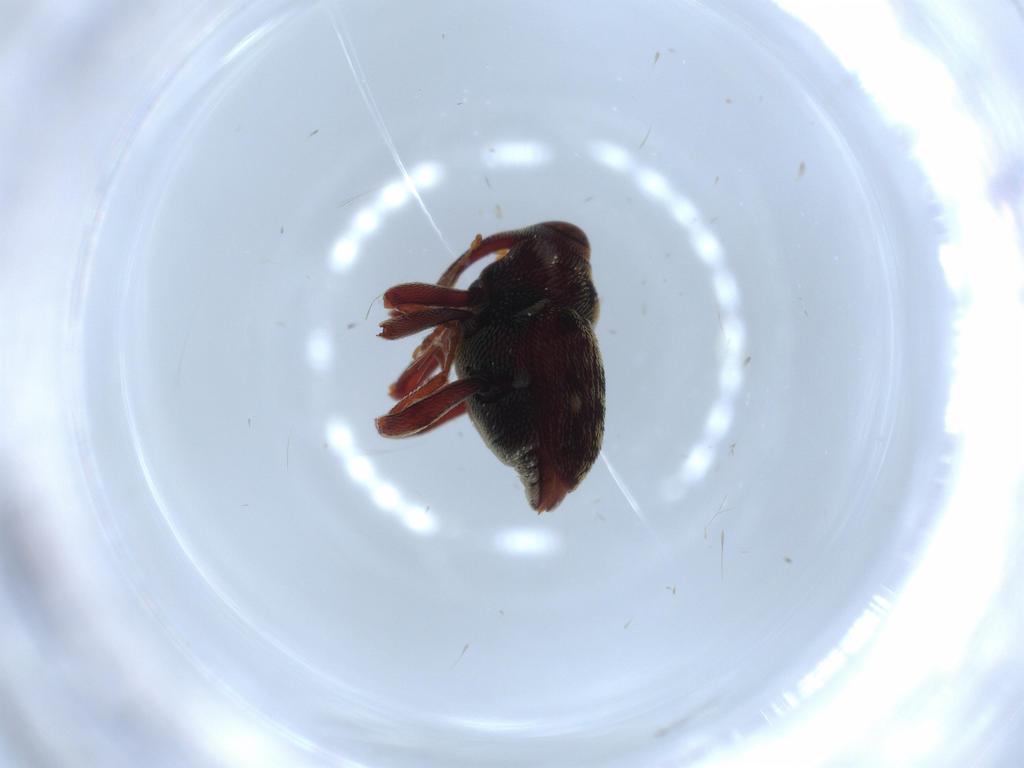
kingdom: Animalia
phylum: Arthropoda
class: Insecta
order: Coleoptera
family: Curculionidae
